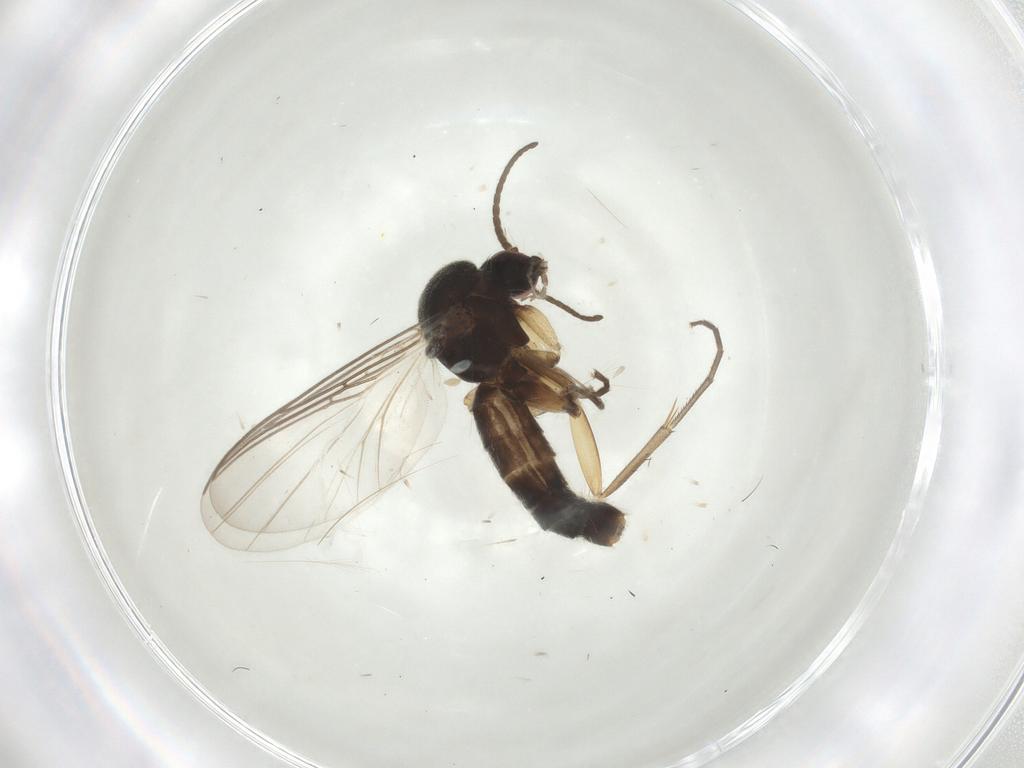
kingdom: Animalia
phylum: Arthropoda
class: Insecta
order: Diptera
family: Mycetophilidae
